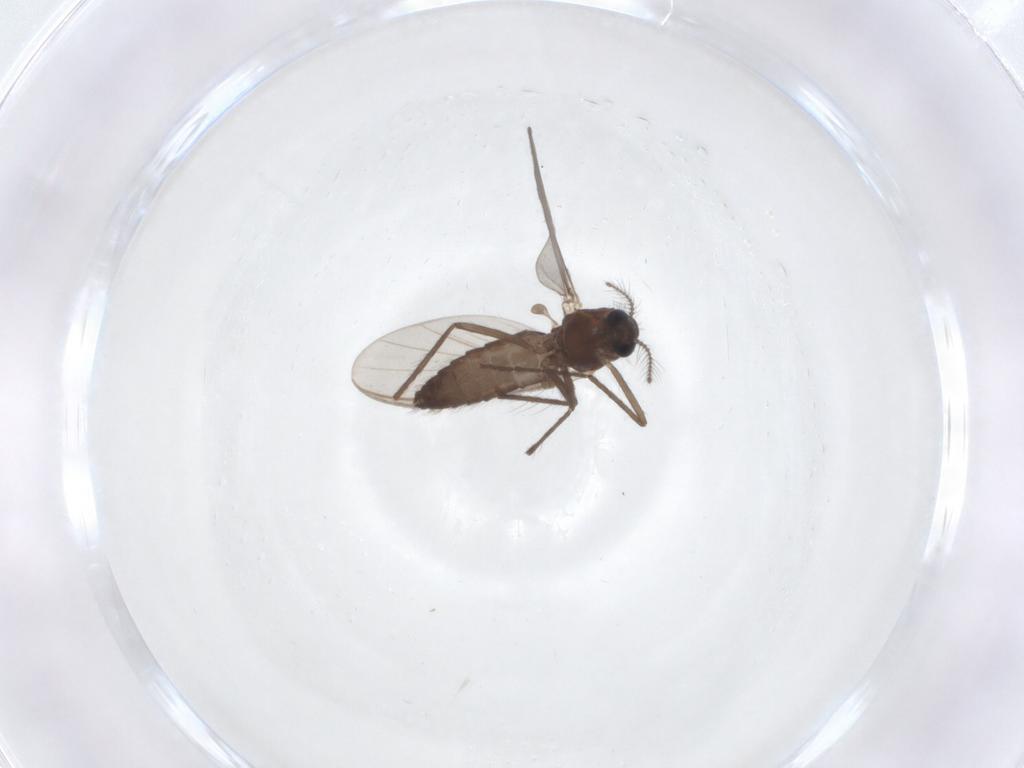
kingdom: Animalia
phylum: Arthropoda
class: Insecta
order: Diptera
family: Chironomidae
